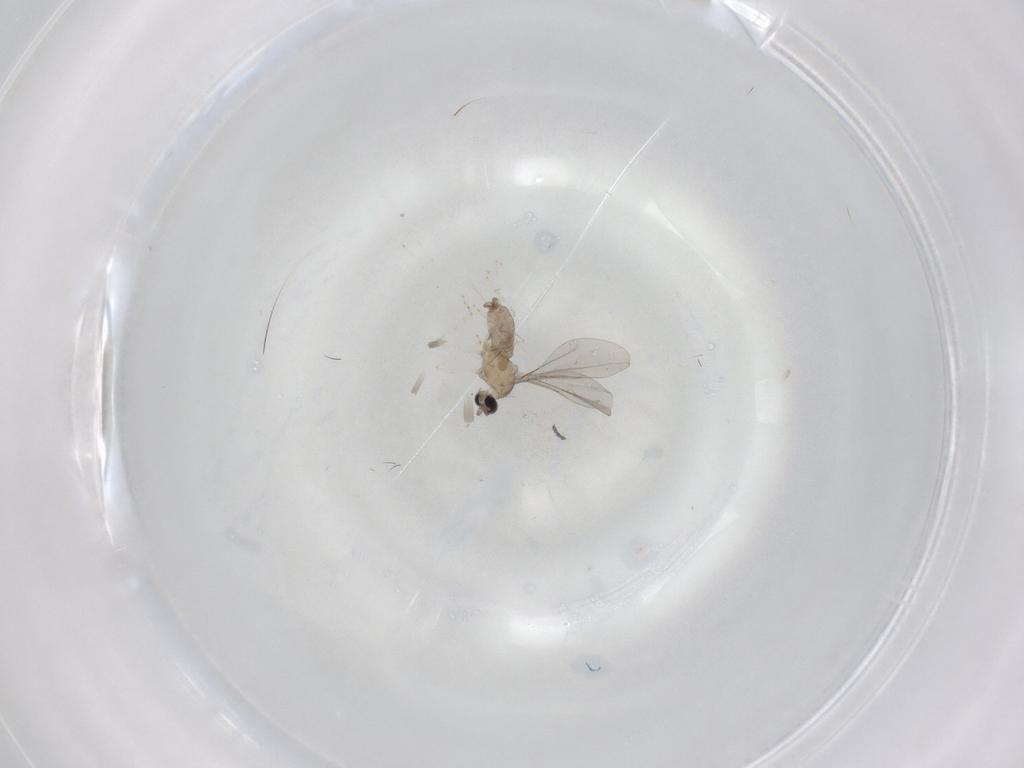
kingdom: Animalia
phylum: Arthropoda
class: Insecta
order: Diptera
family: Cecidomyiidae
